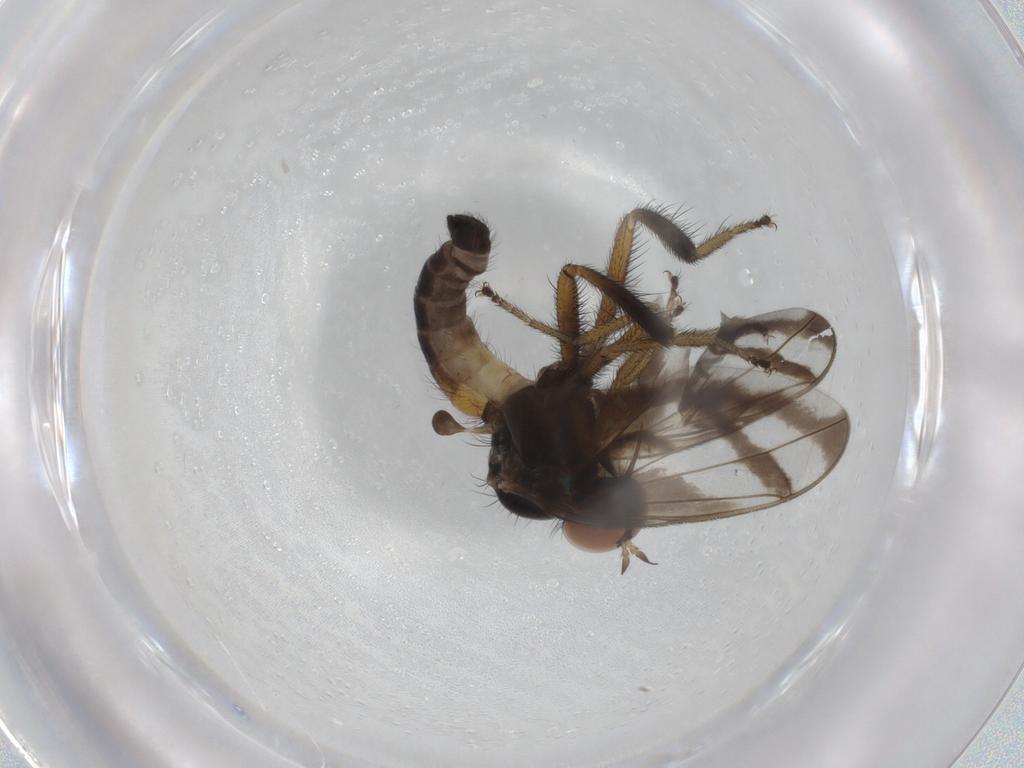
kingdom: Animalia
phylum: Arthropoda
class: Insecta
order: Diptera
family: Empididae
